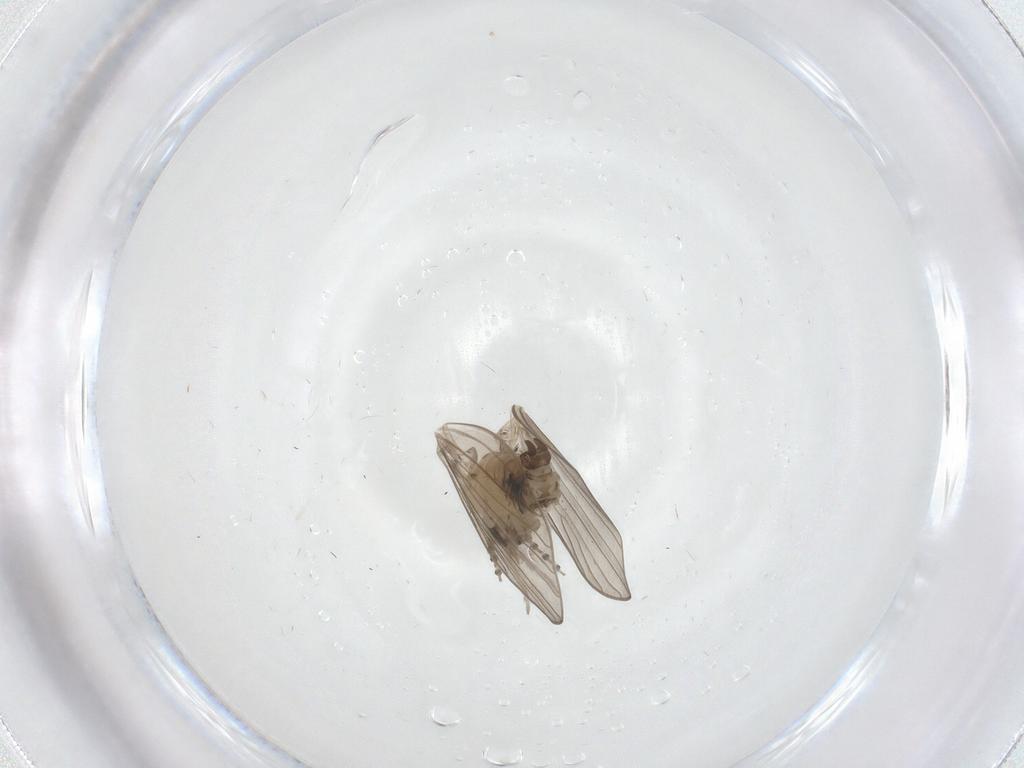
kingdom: Animalia
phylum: Arthropoda
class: Insecta
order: Diptera
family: Psychodidae
